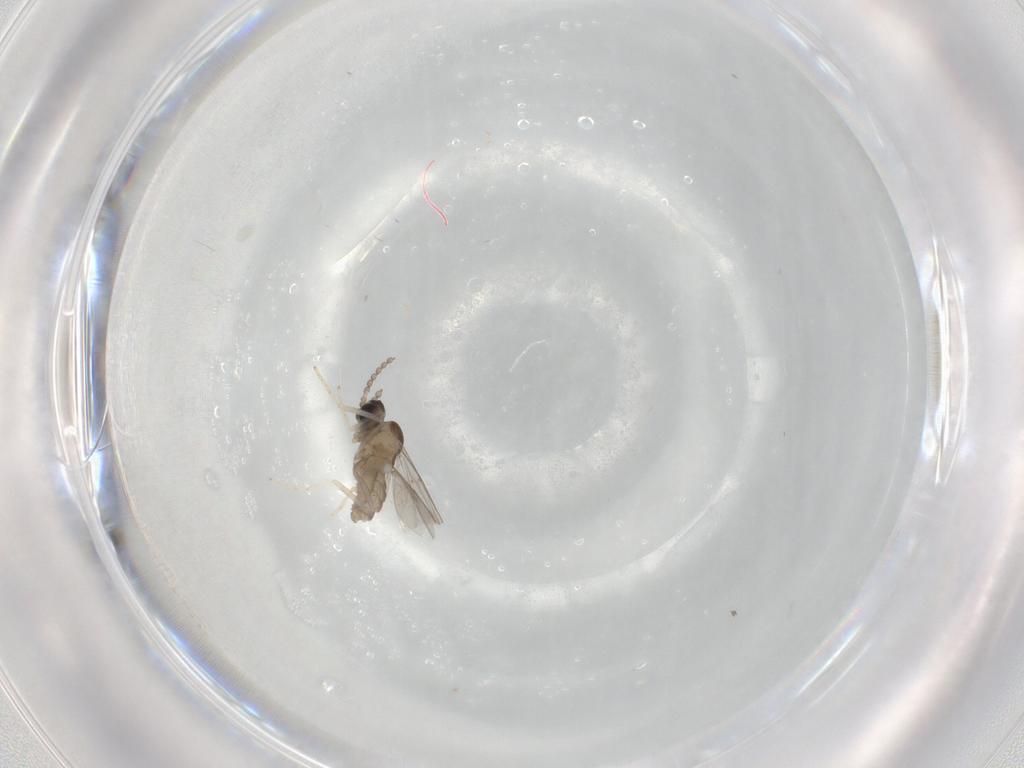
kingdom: Animalia
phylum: Arthropoda
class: Insecta
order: Diptera
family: Cecidomyiidae
